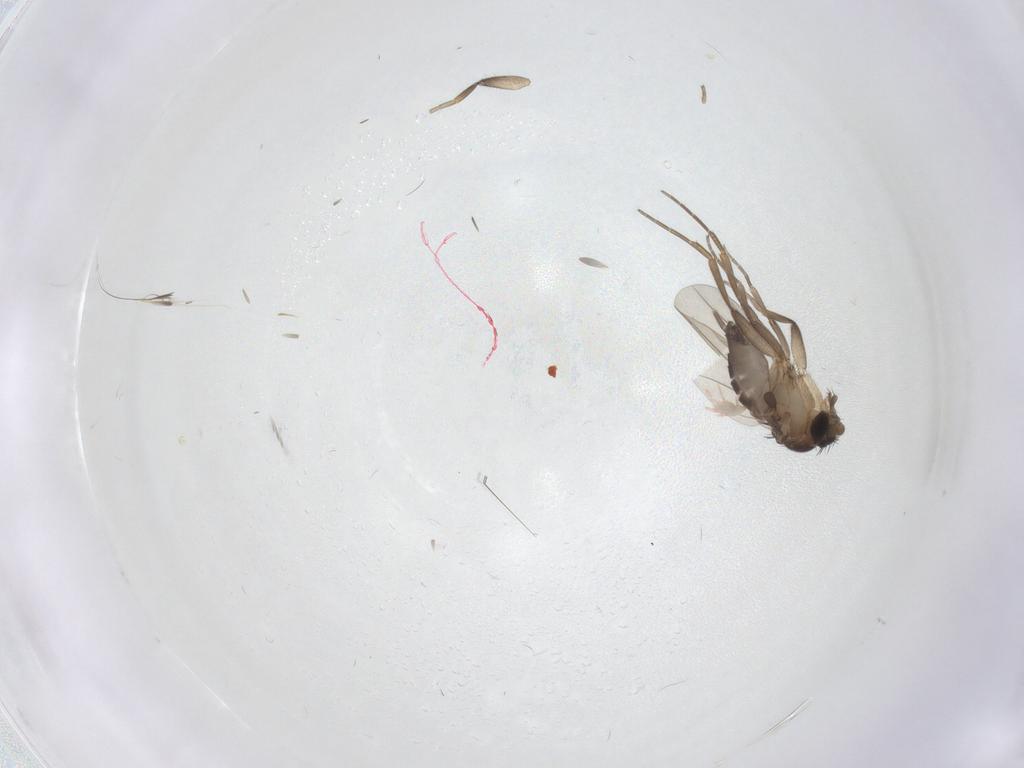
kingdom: Animalia
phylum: Arthropoda
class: Insecta
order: Diptera
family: Phoridae
